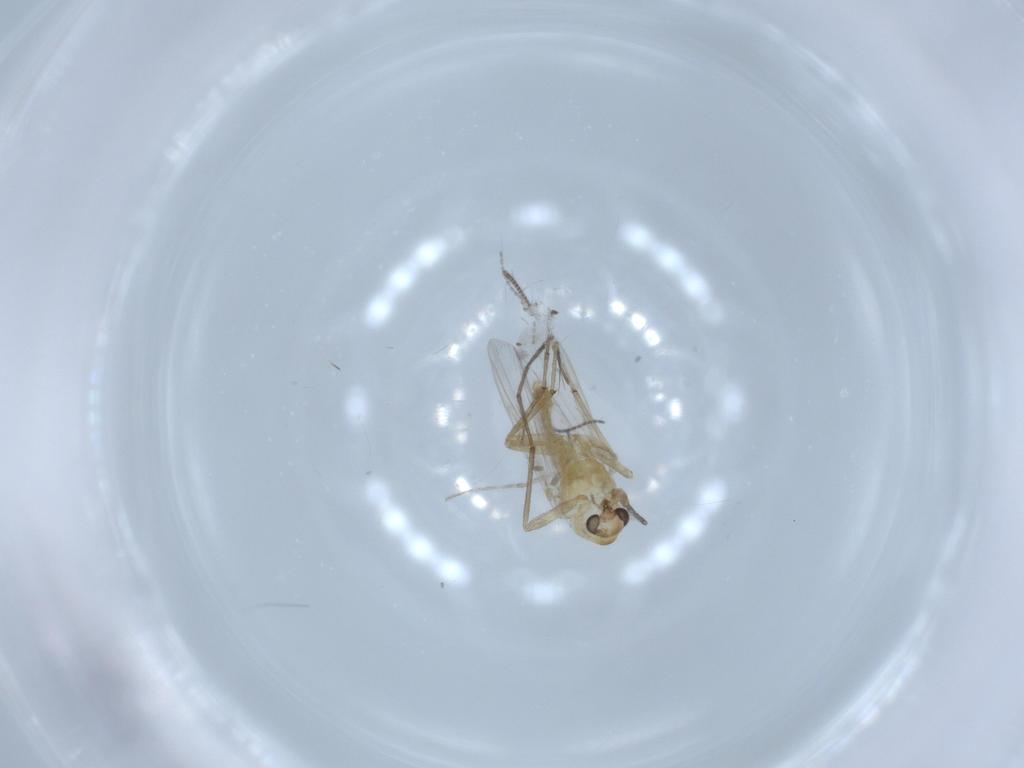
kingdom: Animalia
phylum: Arthropoda
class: Insecta
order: Diptera
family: Chironomidae
